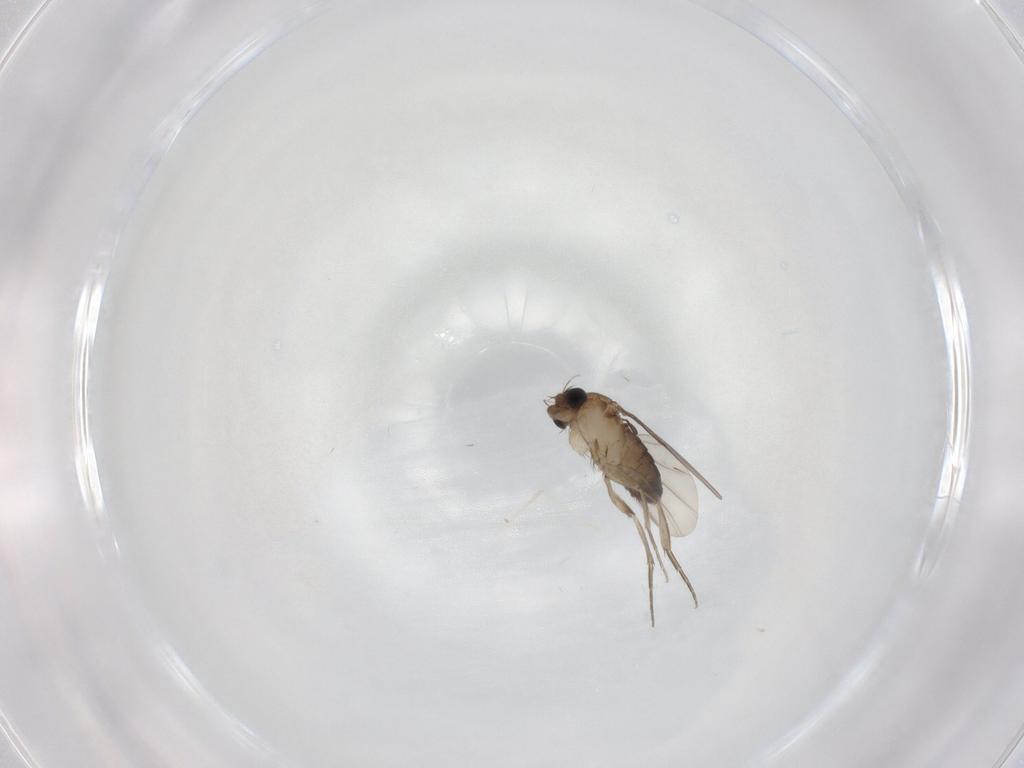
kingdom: Animalia
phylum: Arthropoda
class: Insecta
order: Diptera
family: Phoridae
